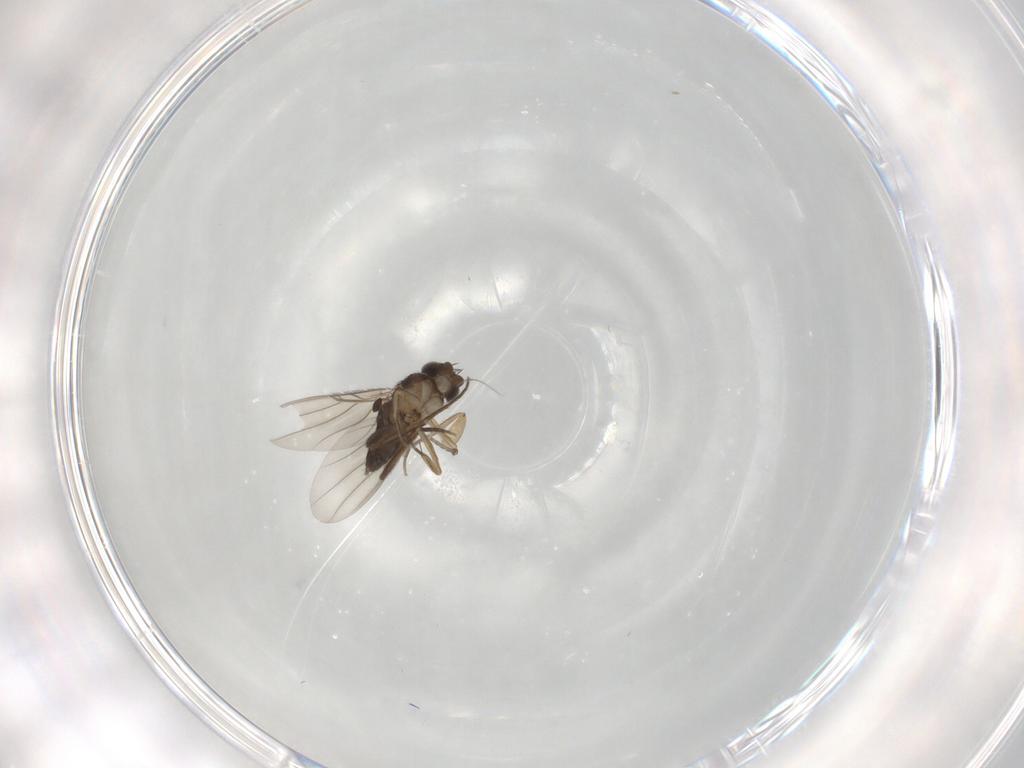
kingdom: Animalia
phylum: Arthropoda
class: Insecta
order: Diptera
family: Phoridae
